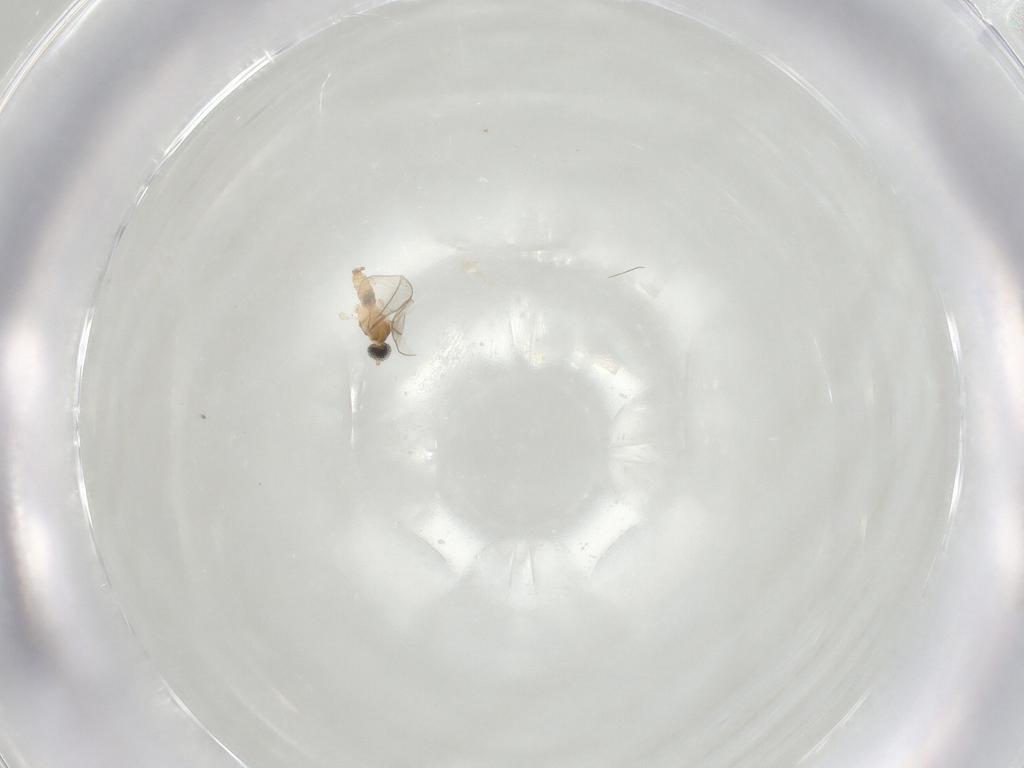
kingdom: Animalia
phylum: Arthropoda
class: Insecta
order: Diptera
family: Cecidomyiidae
